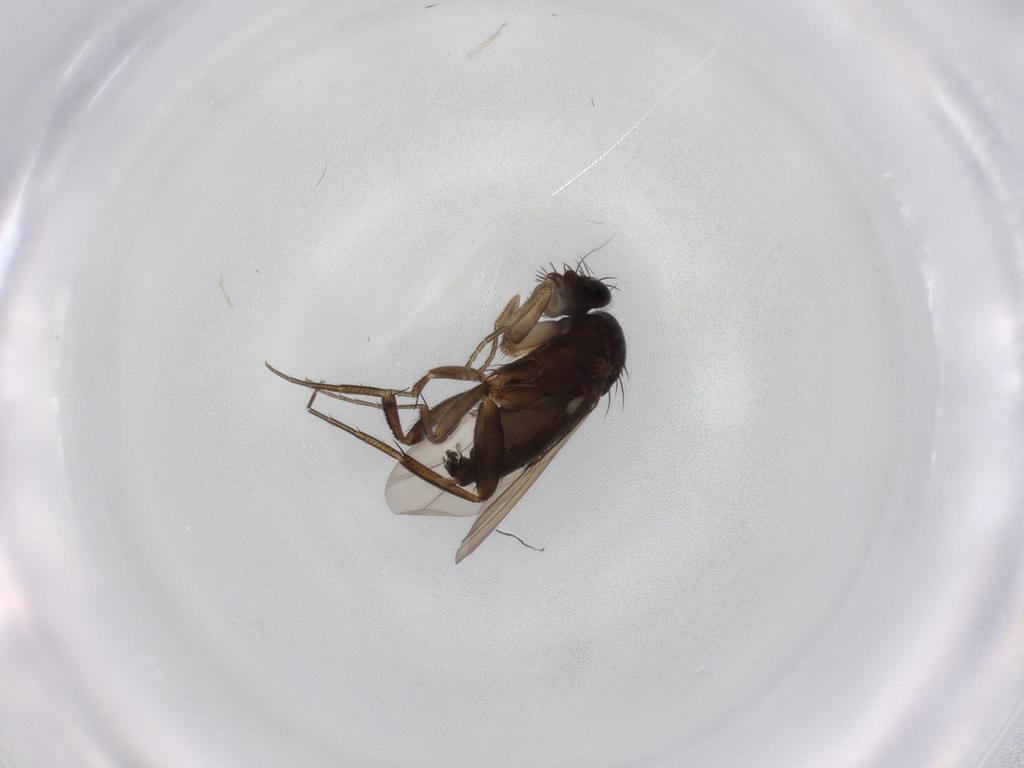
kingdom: Animalia
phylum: Arthropoda
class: Insecta
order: Diptera
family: Phoridae
